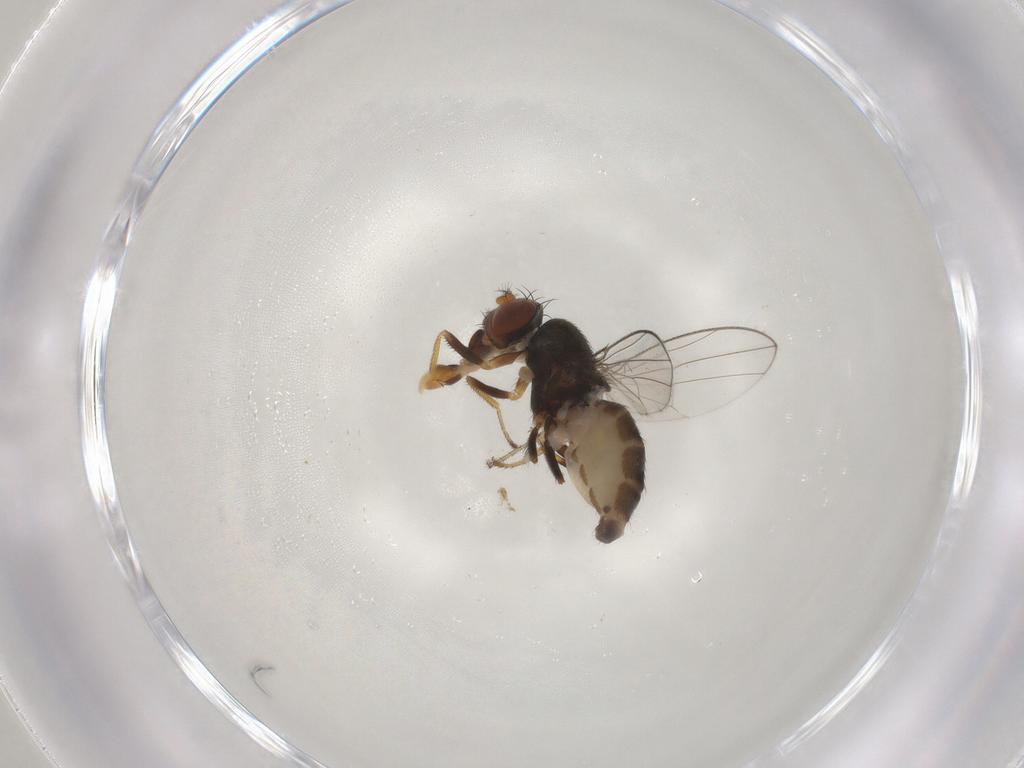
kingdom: Animalia
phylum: Arthropoda
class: Insecta
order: Diptera
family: Ephydridae
